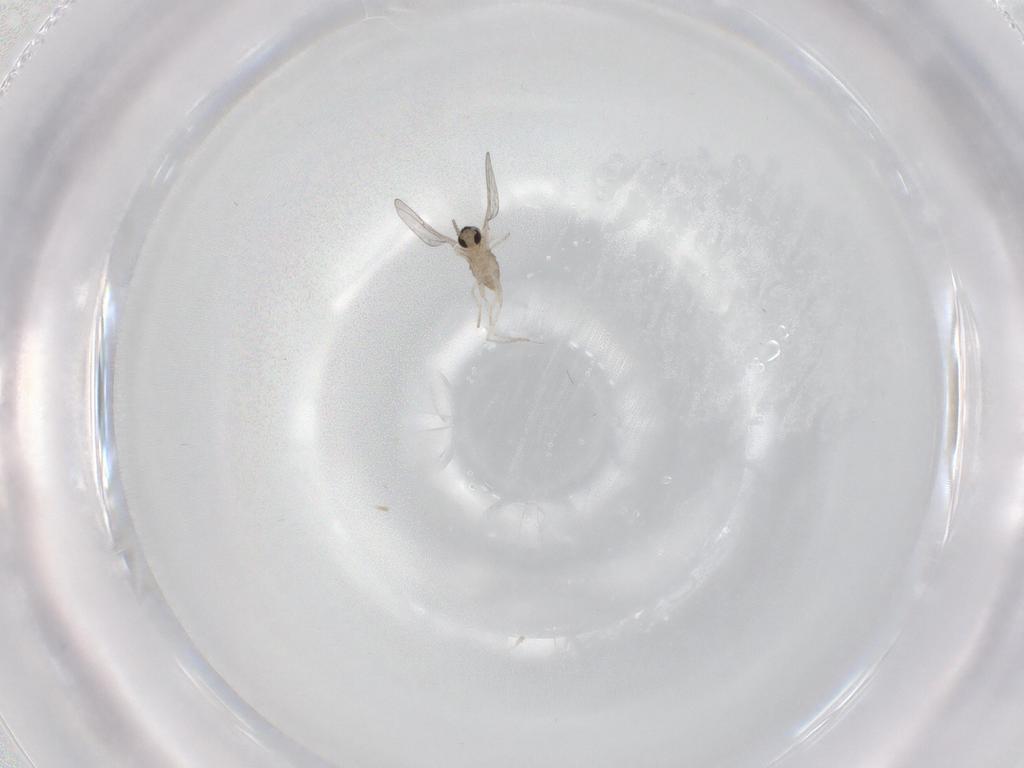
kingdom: Animalia
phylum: Arthropoda
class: Insecta
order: Diptera
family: Cecidomyiidae
